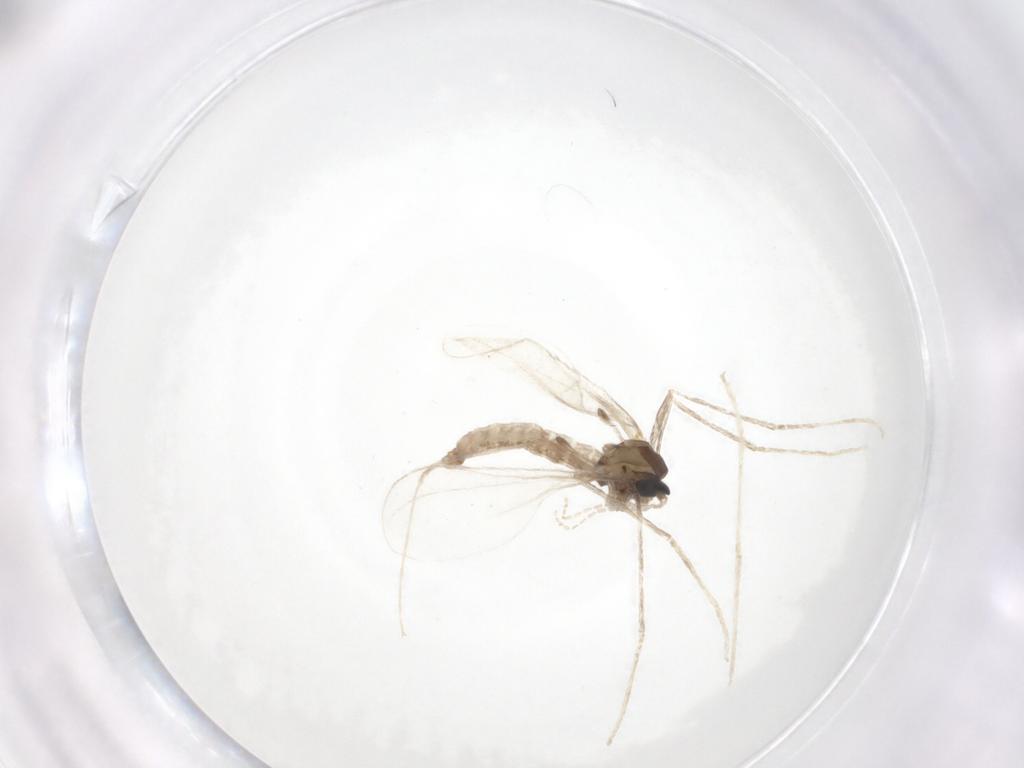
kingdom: Animalia
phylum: Arthropoda
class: Insecta
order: Diptera
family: Cecidomyiidae
